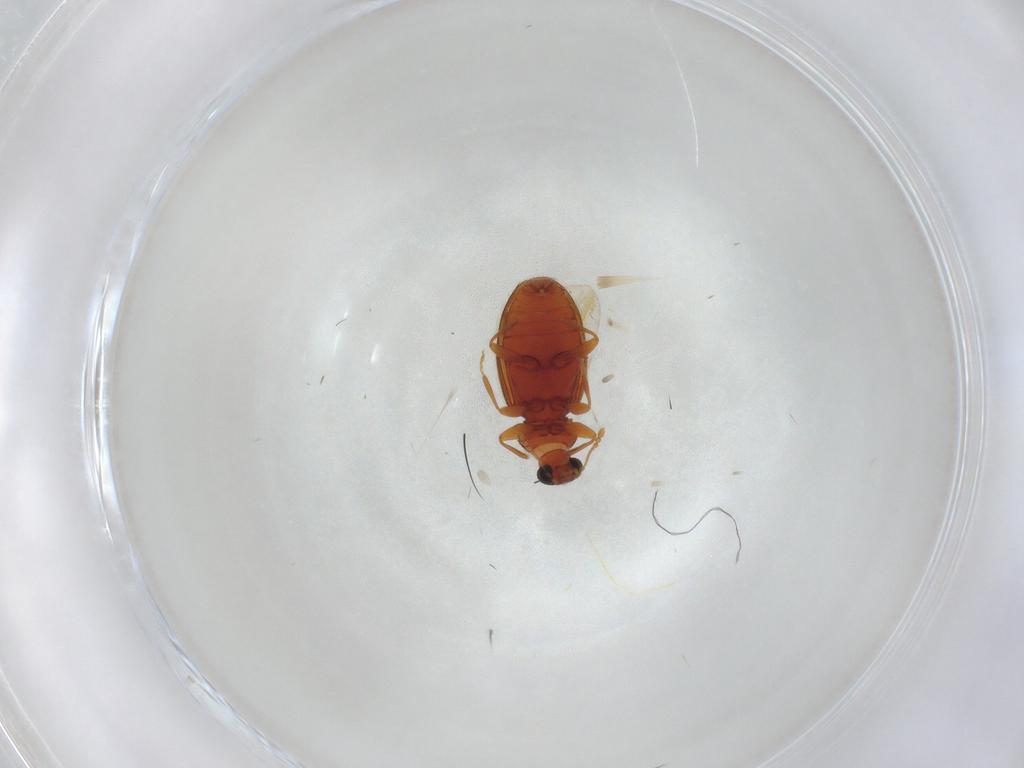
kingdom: Animalia
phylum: Arthropoda
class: Insecta
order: Coleoptera
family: Latridiidae
